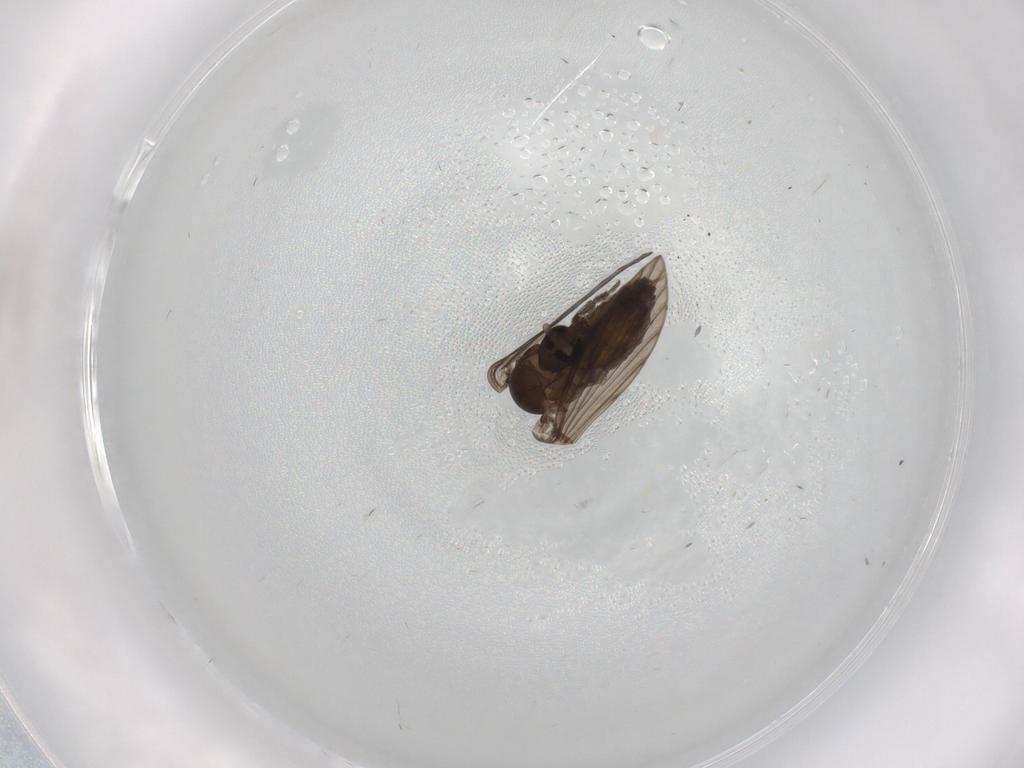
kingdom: Animalia
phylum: Arthropoda
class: Insecta
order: Diptera
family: Psychodidae
